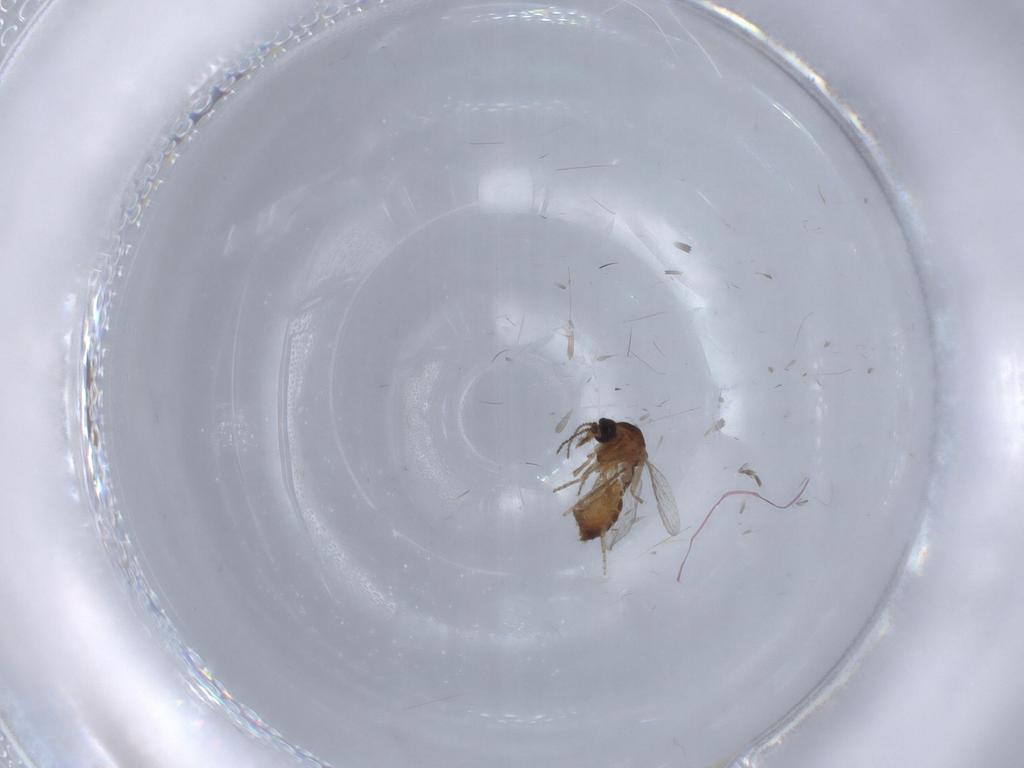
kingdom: Animalia
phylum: Arthropoda
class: Insecta
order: Diptera
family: Ceratopogonidae
